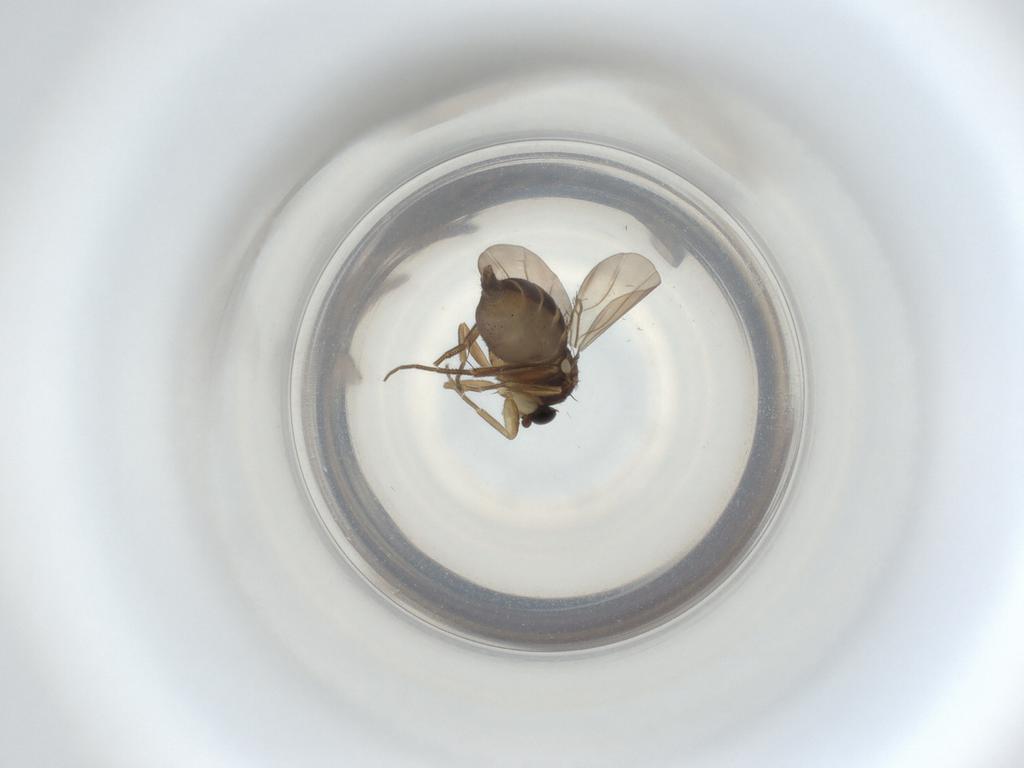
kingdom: Animalia
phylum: Arthropoda
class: Insecta
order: Diptera
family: Phoridae
